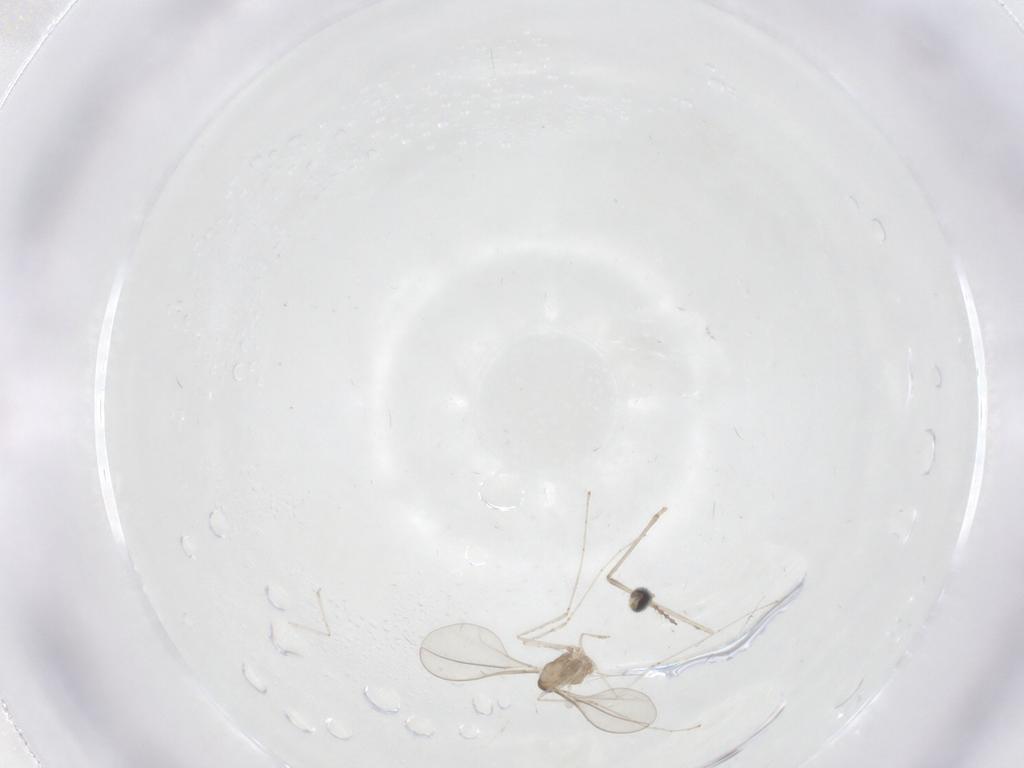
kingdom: Animalia
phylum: Arthropoda
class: Insecta
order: Diptera
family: Cecidomyiidae
